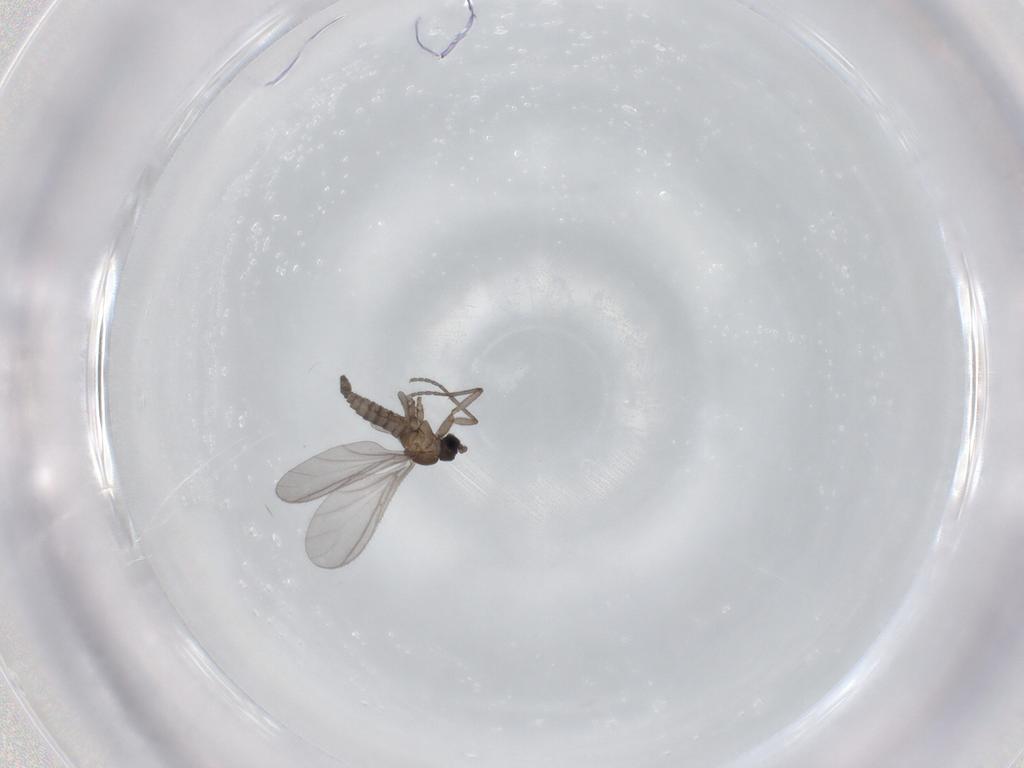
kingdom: Animalia
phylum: Arthropoda
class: Insecta
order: Diptera
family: Sciaridae
